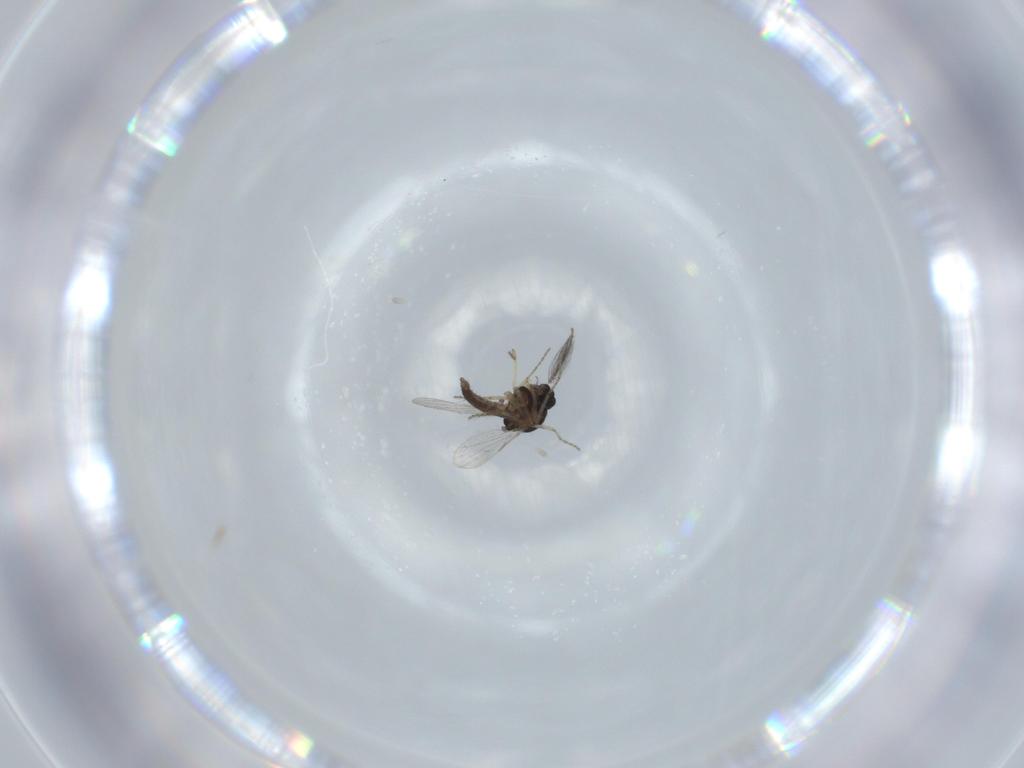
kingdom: Animalia
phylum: Arthropoda
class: Insecta
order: Diptera
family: Ceratopogonidae
